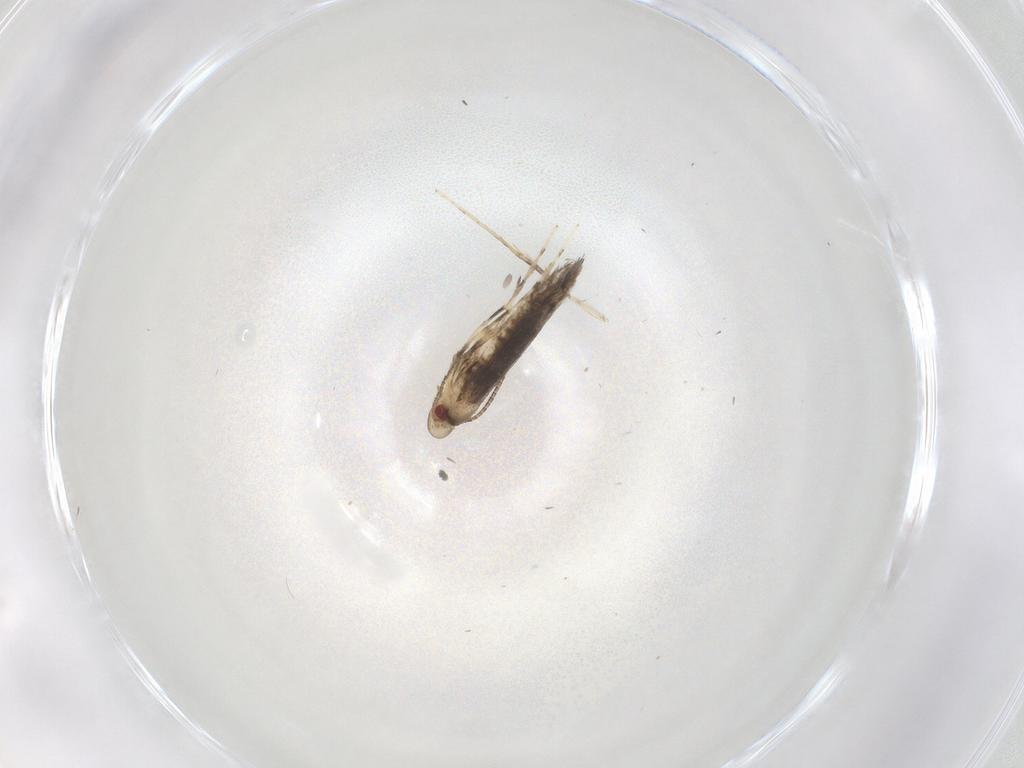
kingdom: Animalia
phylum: Arthropoda
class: Insecta
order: Lepidoptera
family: Gracillariidae
